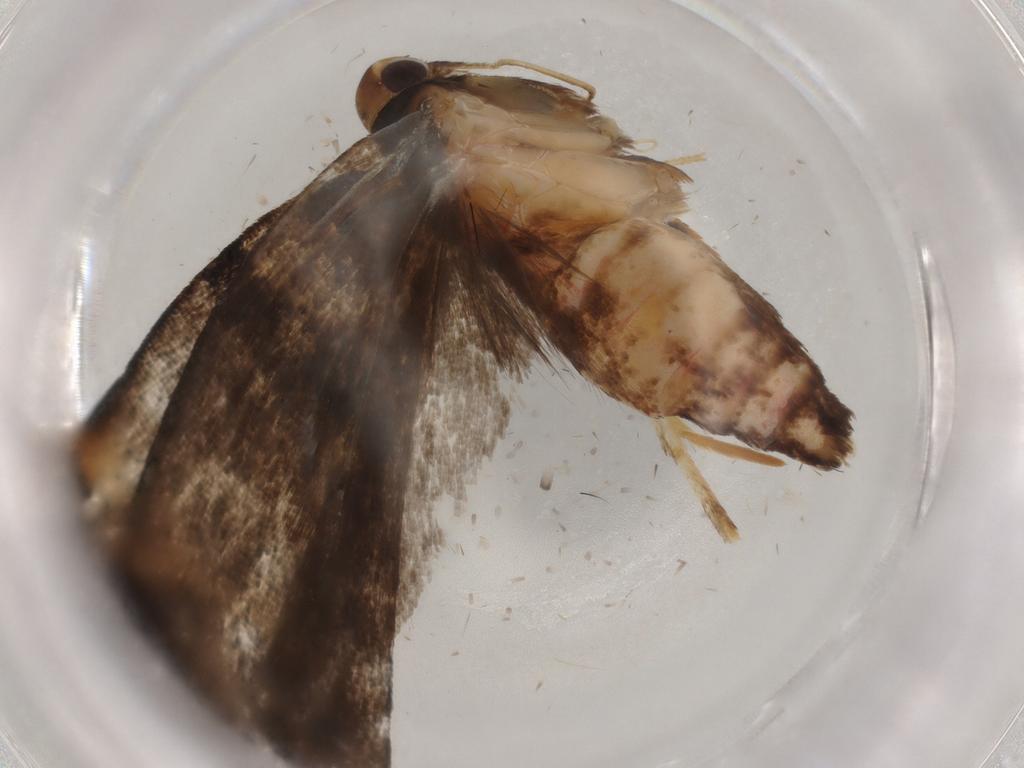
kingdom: Animalia
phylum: Arthropoda
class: Insecta
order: Lepidoptera
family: Gelechiidae
